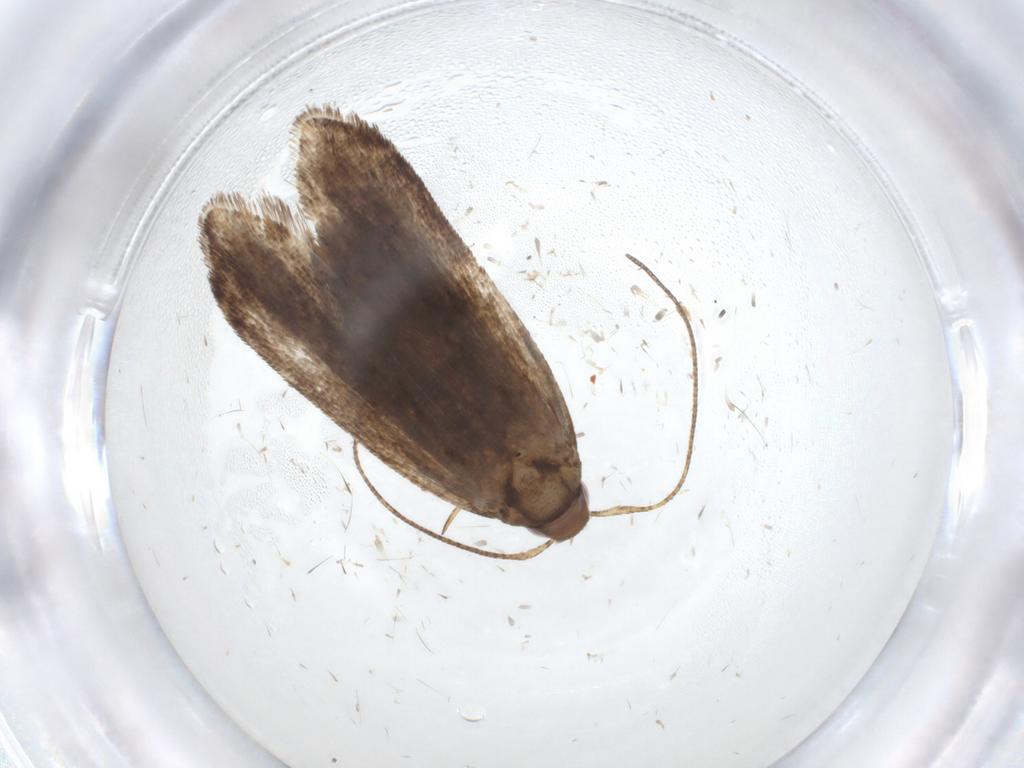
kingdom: Animalia
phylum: Arthropoda
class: Insecta
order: Lepidoptera
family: Gelechiidae
